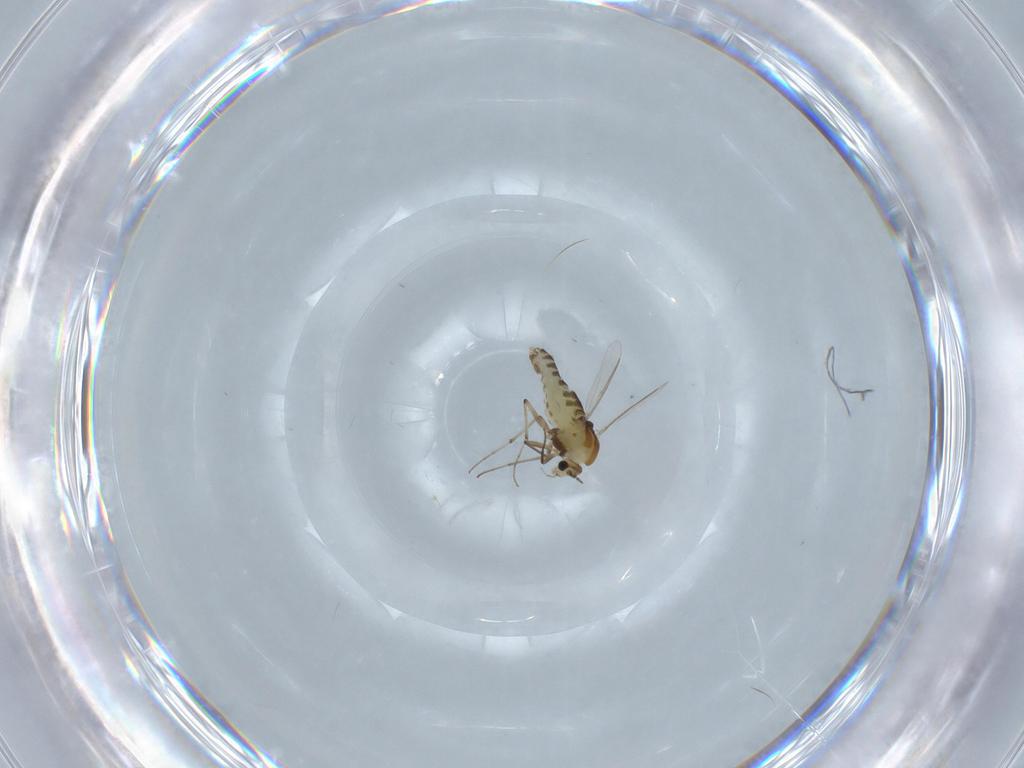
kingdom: Animalia
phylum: Arthropoda
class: Insecta
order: Diptera
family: Chironomidae
